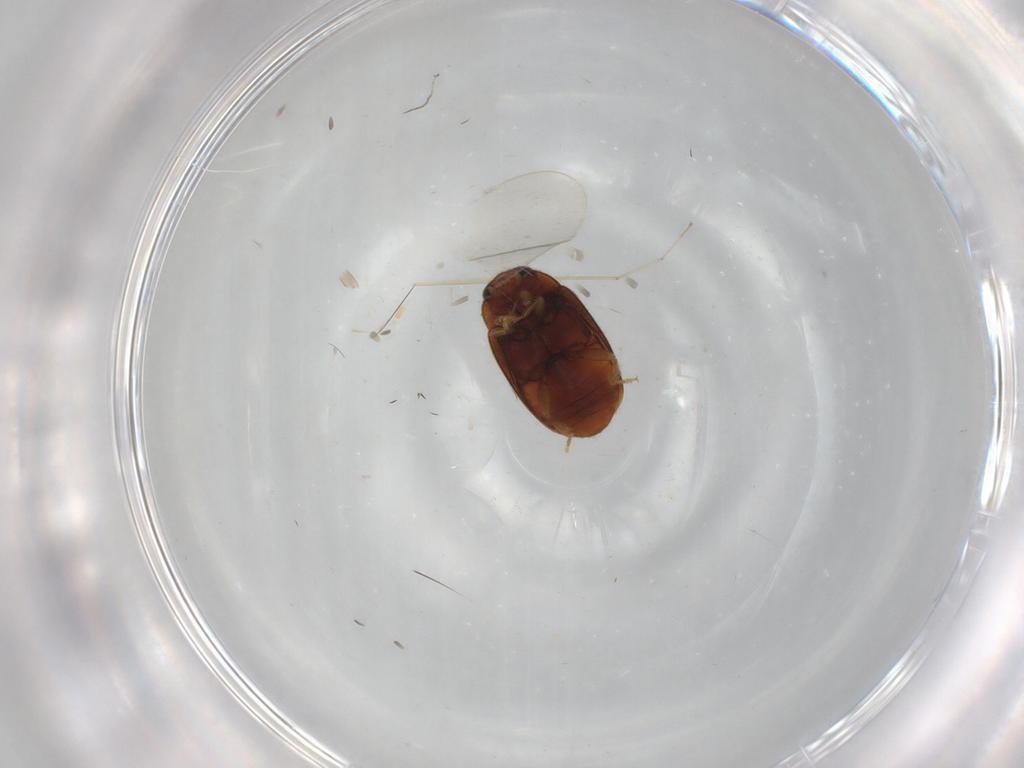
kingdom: Animalia
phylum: Arthropoda
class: Insecta
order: Coleoptera
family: Coccinellidae
